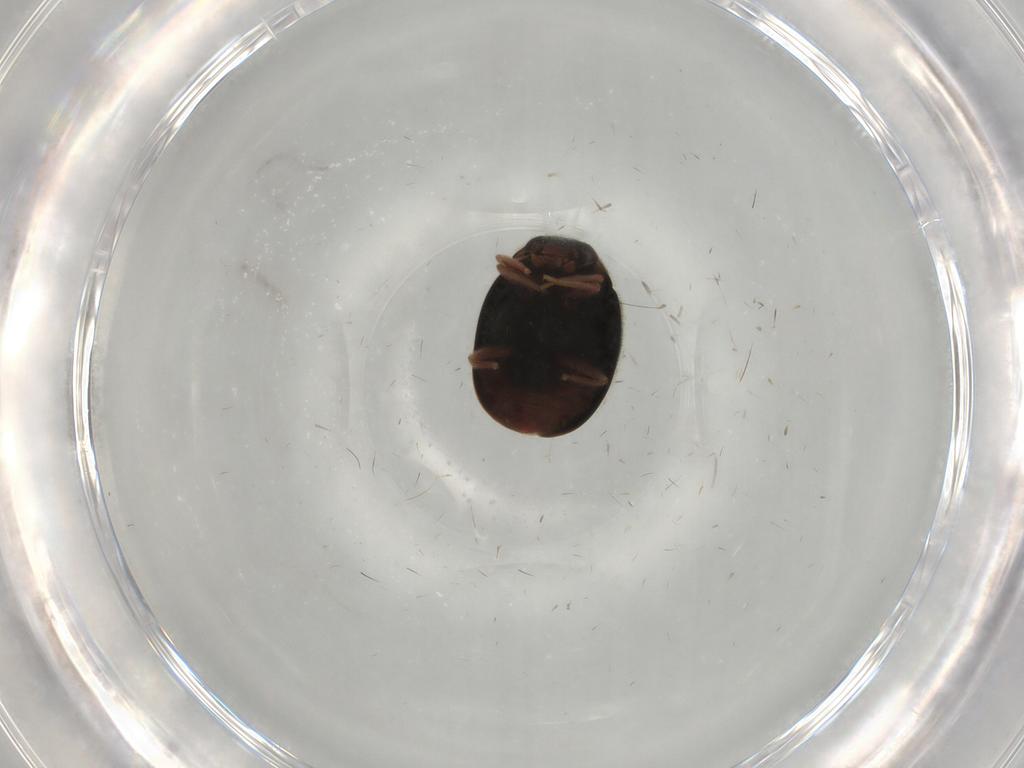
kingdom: Animalia
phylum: Arthropoda
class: Insecta
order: Coleoptera
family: Coccinellidae
